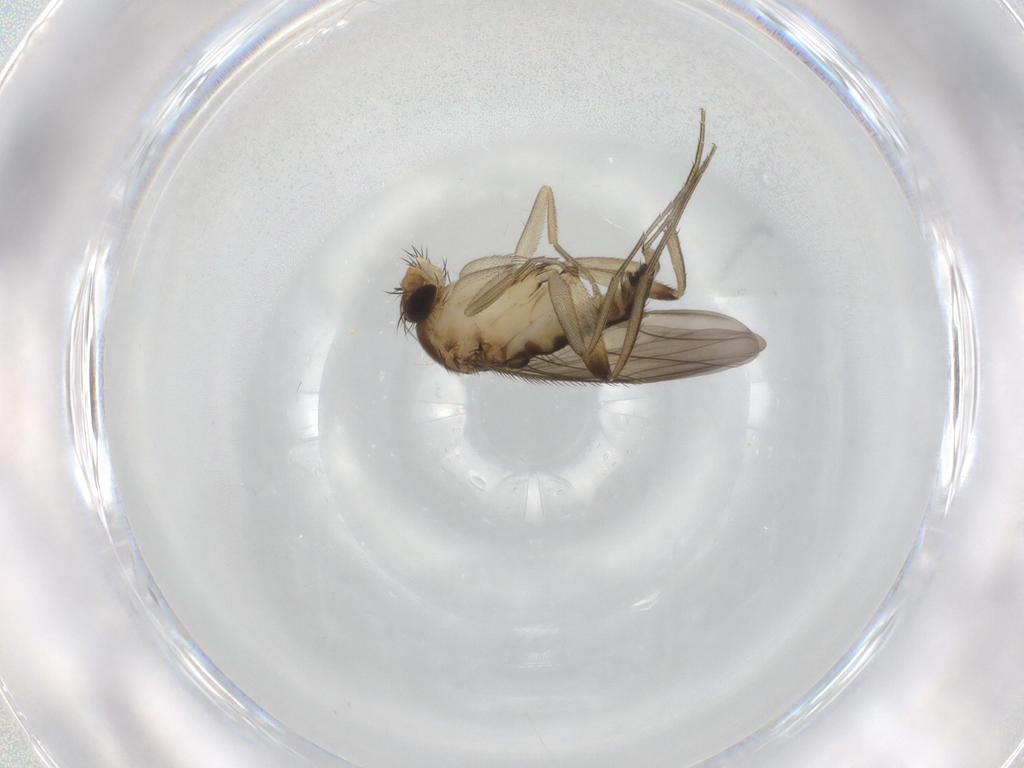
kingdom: Animalia
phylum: Arthropoda
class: Insecta
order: Diptera
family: Phoridae
